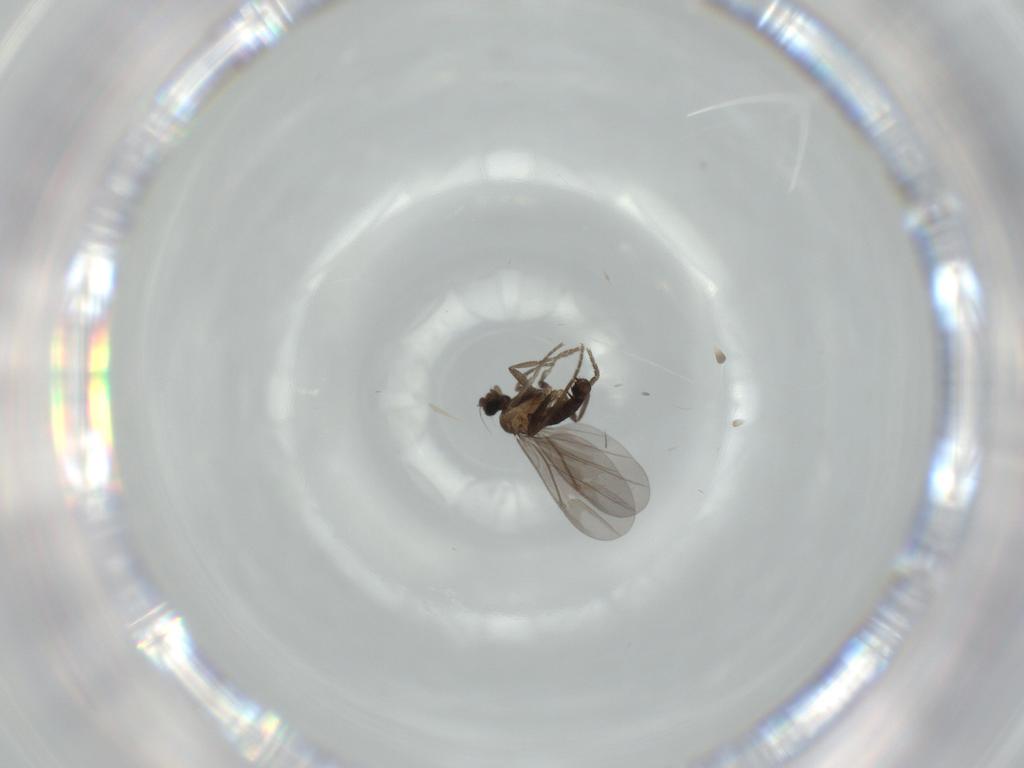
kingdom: Animalia
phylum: Arthropoda
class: Insecta
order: Diptera
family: Phoridae
